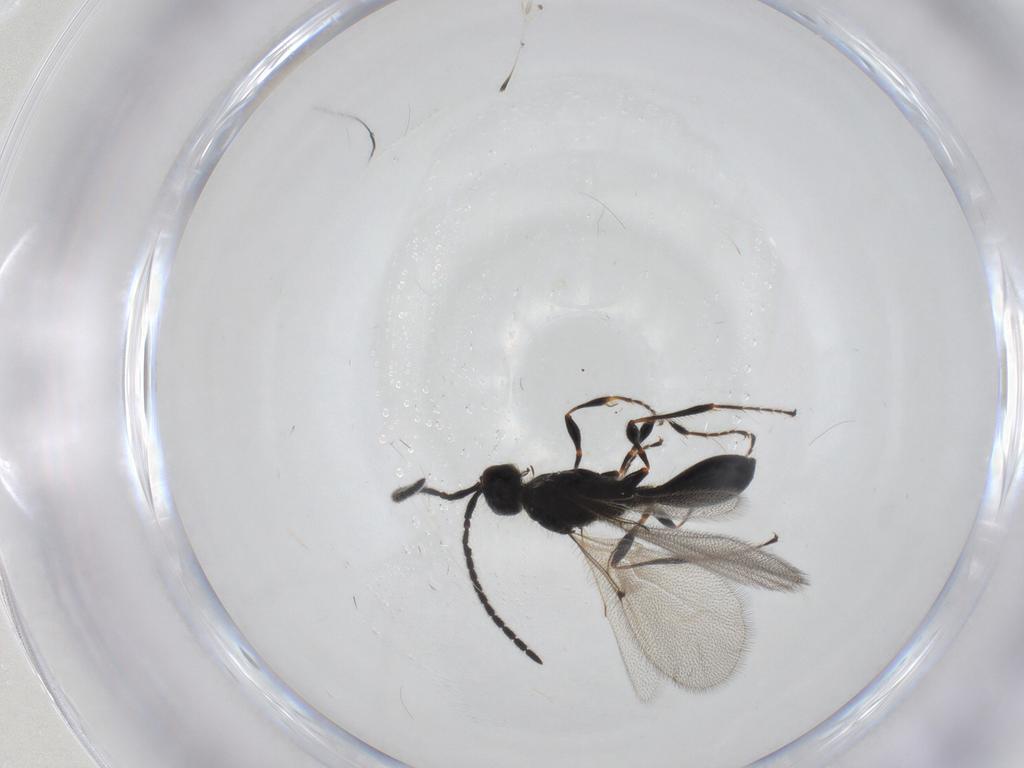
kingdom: Animalia
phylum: Arthropoda
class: Insecta
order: Hymenoptera
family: Diapriidae
